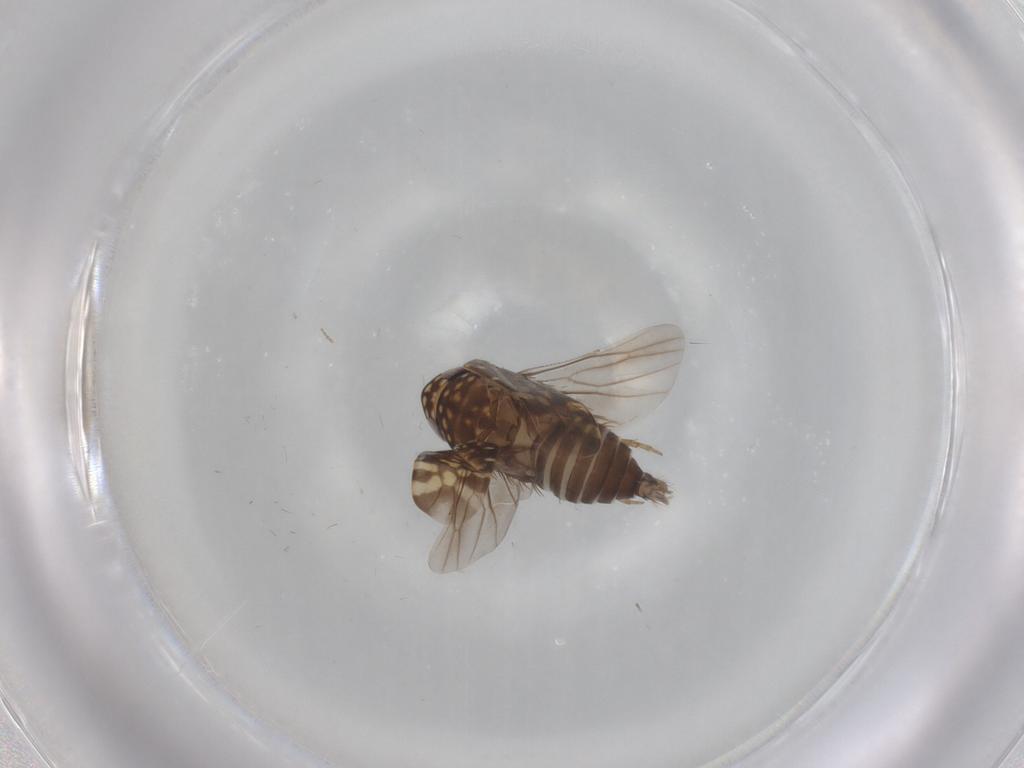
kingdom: Animalia
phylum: Arthropoda
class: Insecta
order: Hemiptera
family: Cicadellidae
